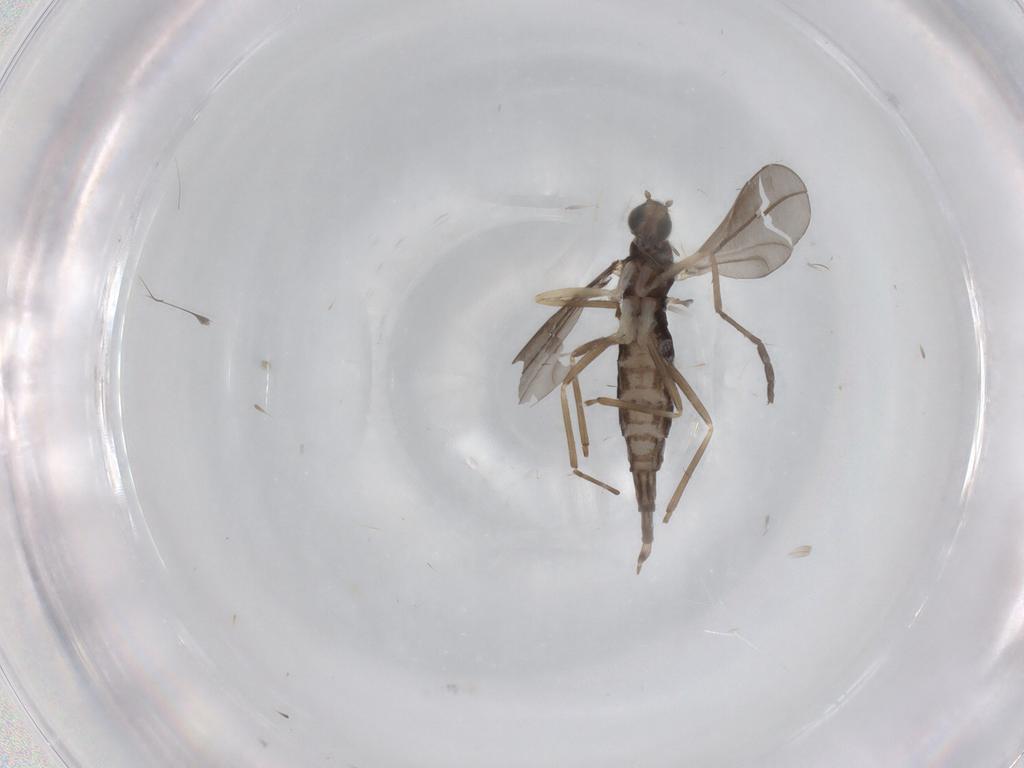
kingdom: Animalia
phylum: Arthropoda
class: Insecta
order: Diptera
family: Cecidomyiidae
